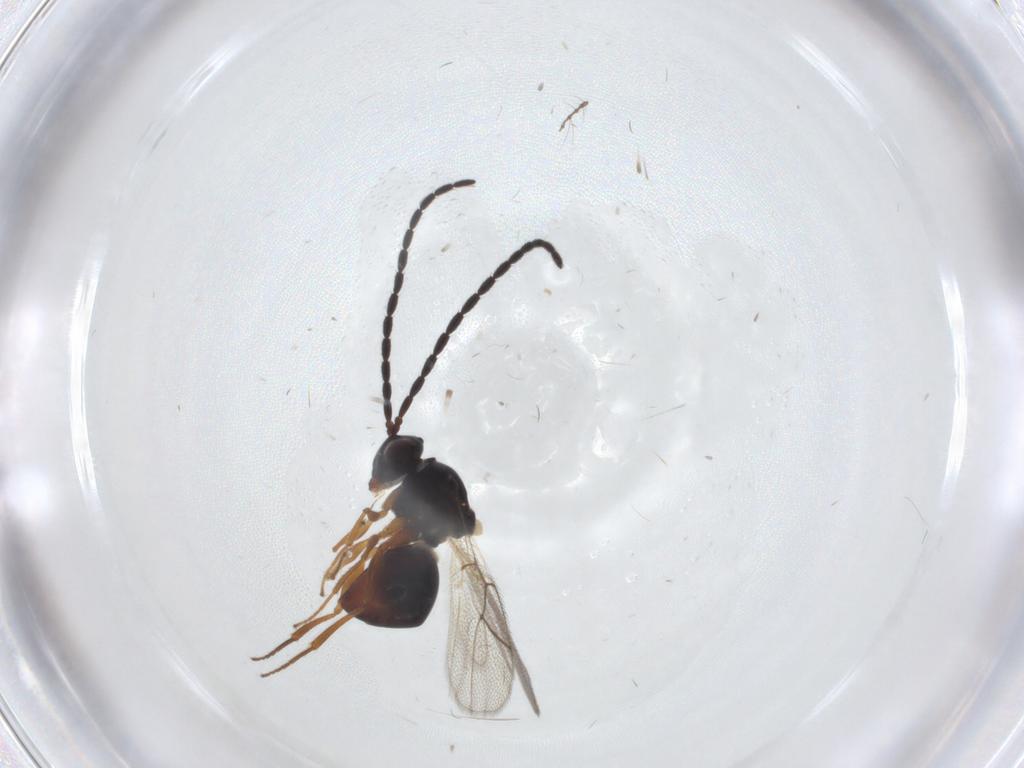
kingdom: Animalia
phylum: Arthropoda
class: Insecta
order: Hymenoptera
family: Figitidae
